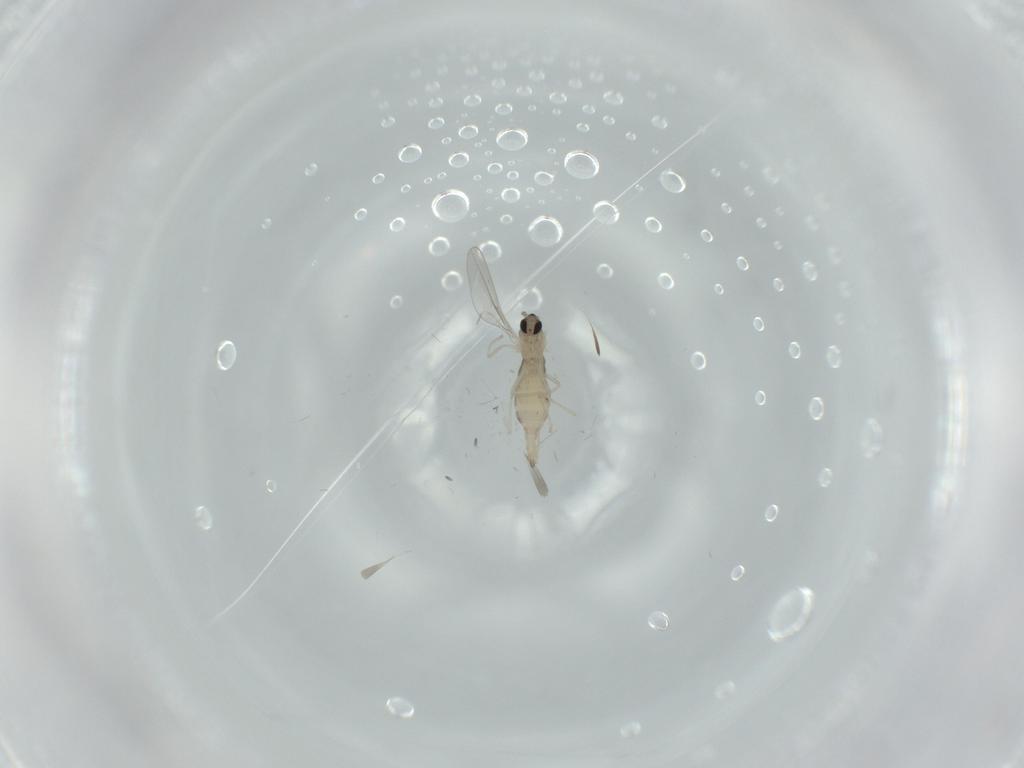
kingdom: Animalia
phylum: Arthropoda
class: Insecta
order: Diptera
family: Cecidomyiidae
